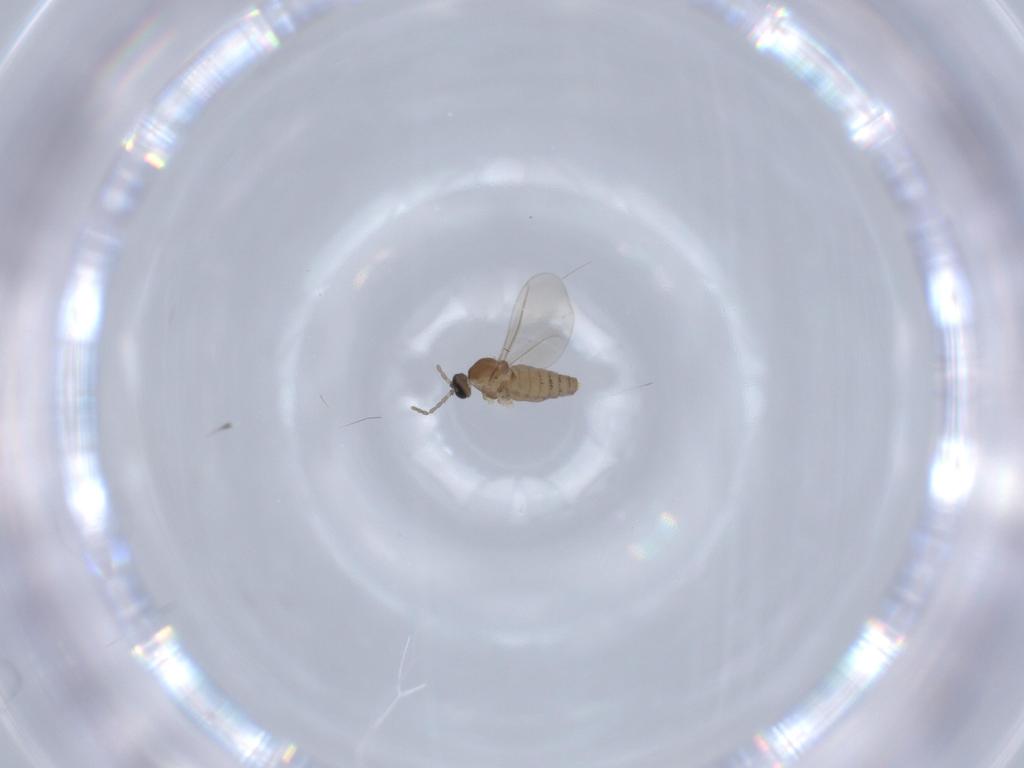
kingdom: Animalia
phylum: Arthropoda
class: Insecta
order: Diptera
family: Cecidomyiidae
